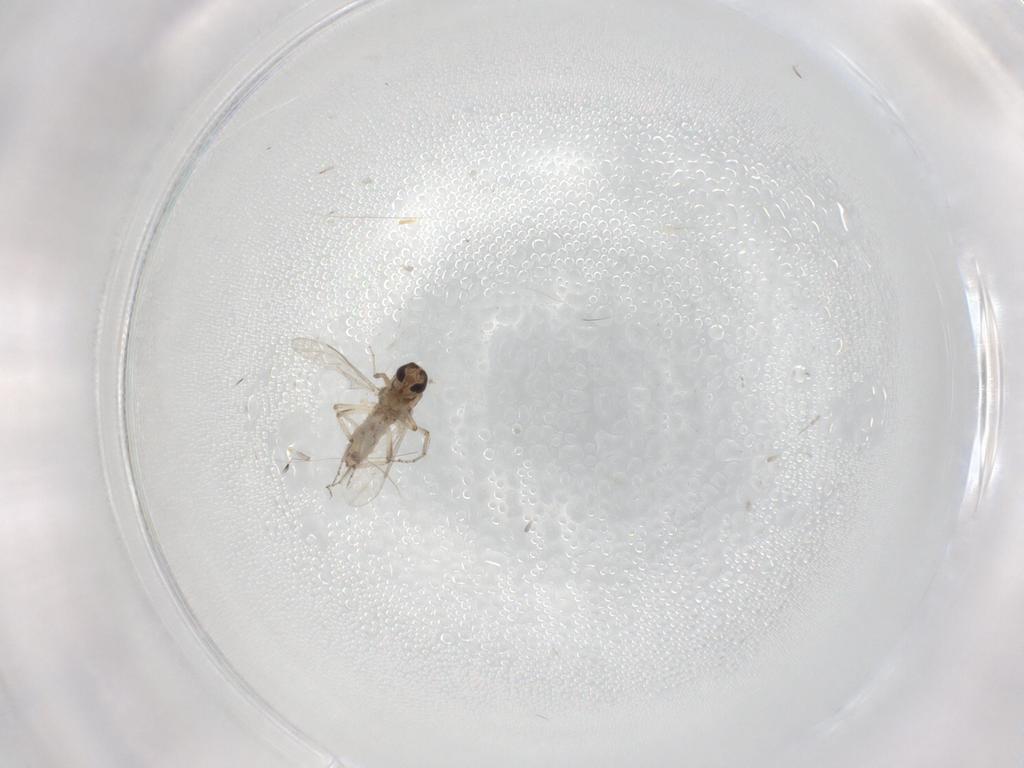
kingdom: Animalia
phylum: Arthropoda
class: Insecta
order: Diptera
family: Ceratopogonidae
